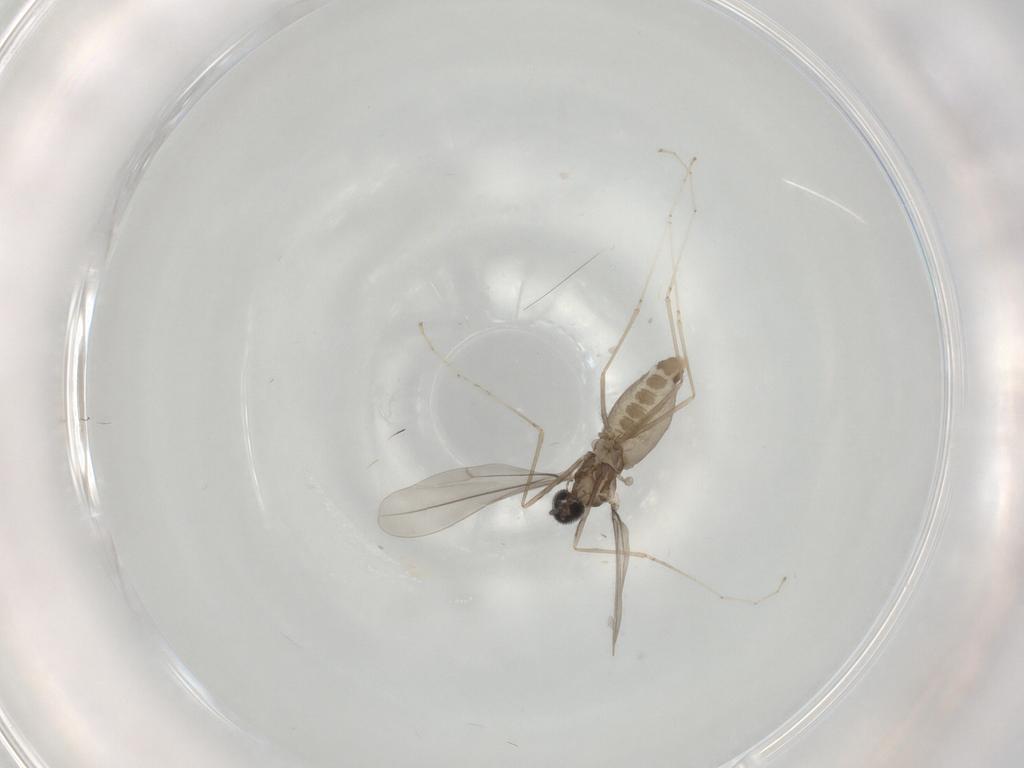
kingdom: Animalia
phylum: Arthropoda
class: Insecta
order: Diptera
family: Cecidomyiidae
